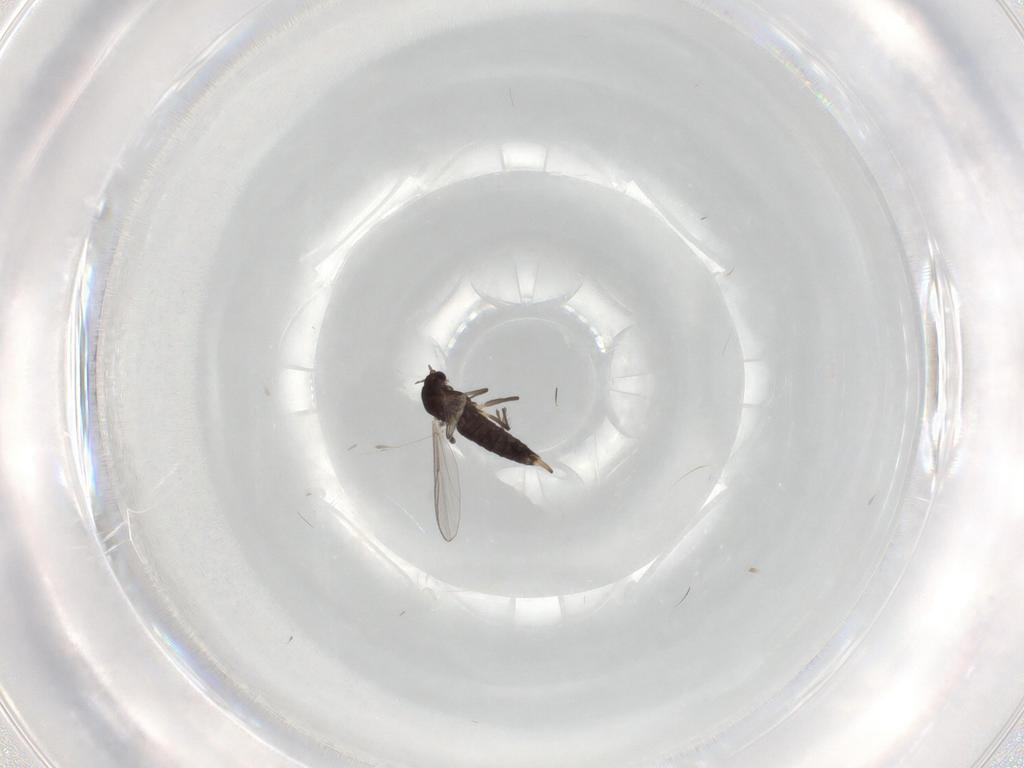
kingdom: Animalia
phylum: Arthropoda
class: Insecta
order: Diptera
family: Chironomidae
